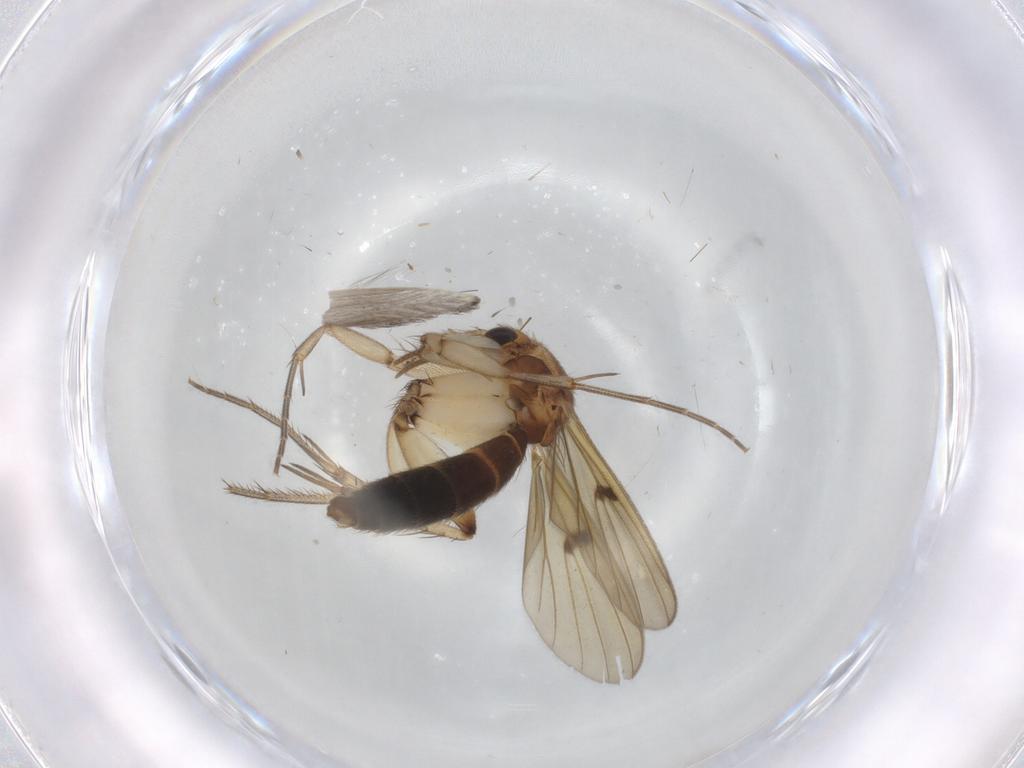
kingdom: Animalia
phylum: Arthropoda
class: Insecta
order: Diptera
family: Mycetophilidae
